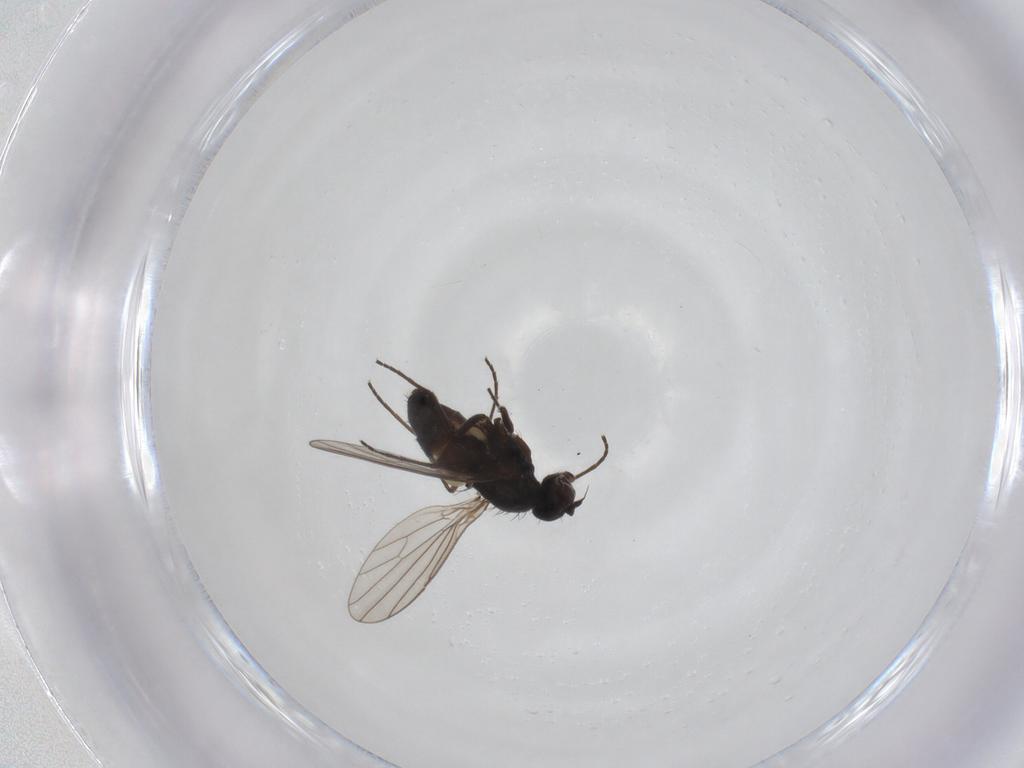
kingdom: Animalia
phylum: Arthropoda
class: Insecta
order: Diptera
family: Dolichopodidae
